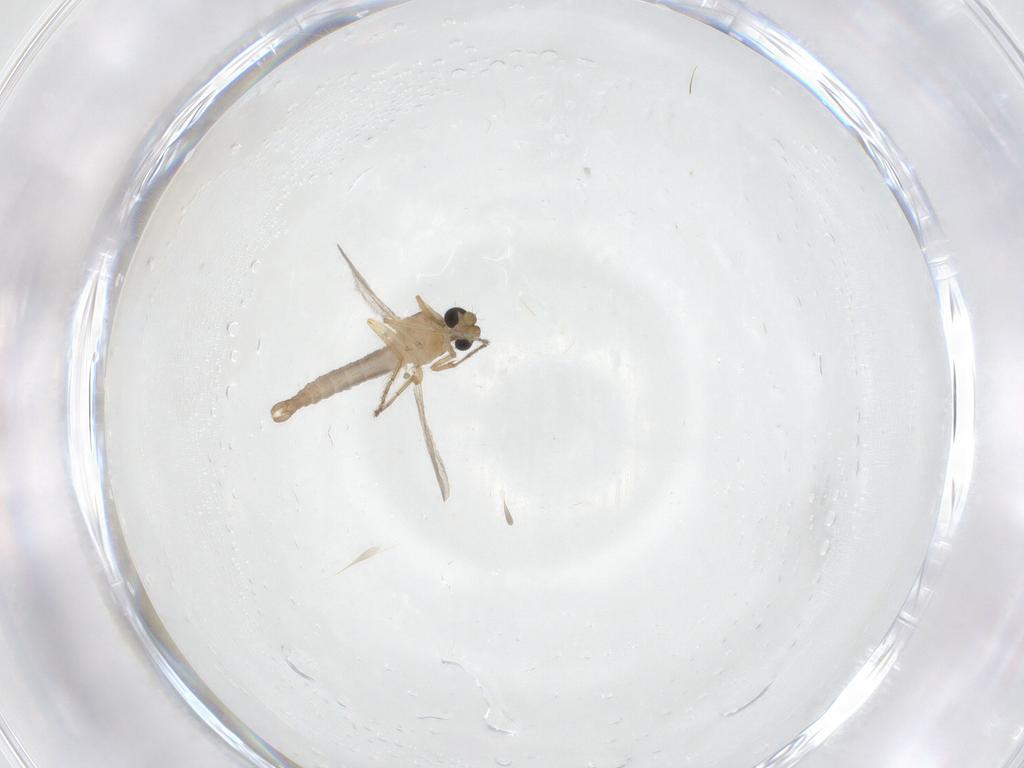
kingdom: Animalia
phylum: Arthropoda
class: Insecta
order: Diptera
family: Ceratopogonidae
